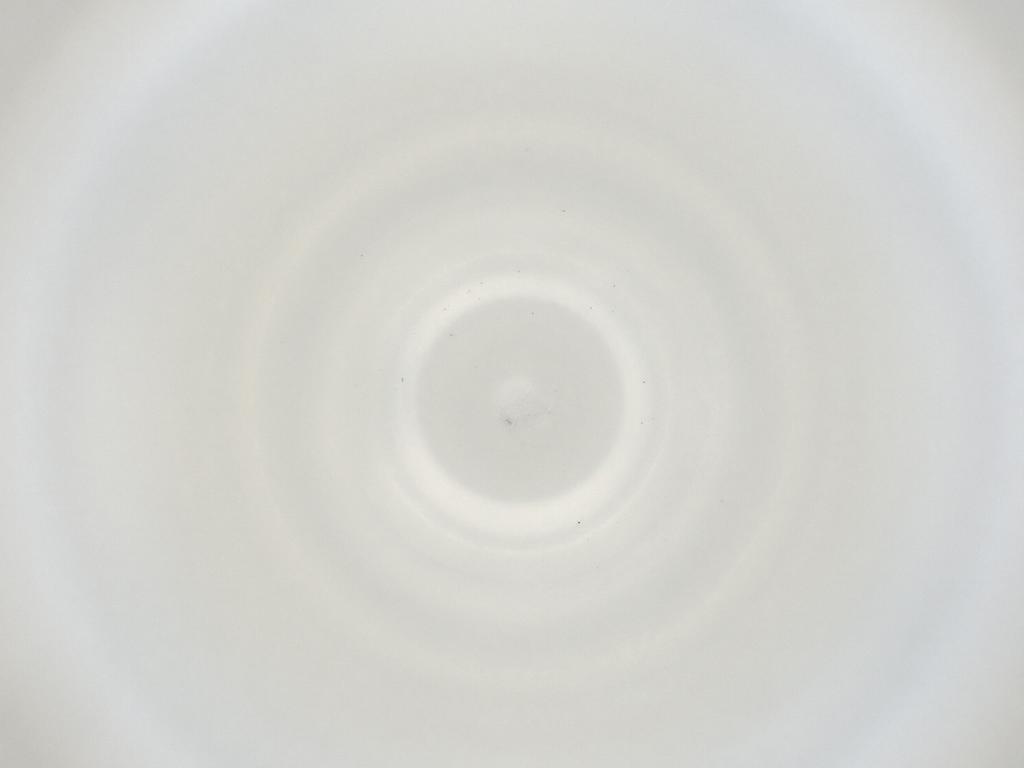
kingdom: Animalia
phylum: Arthropoda
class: Insecta
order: Diptera
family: Cecidomyiidae
